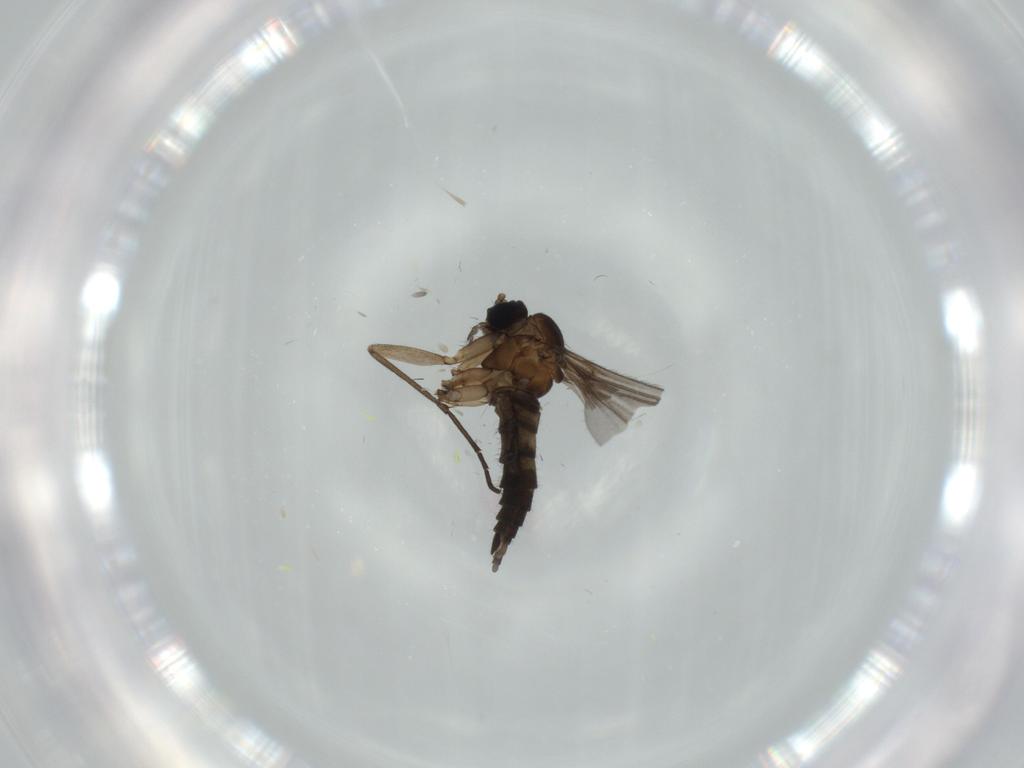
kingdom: Animalia
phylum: Arthropoda
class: Insecta
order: Diptera
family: Sciaridae
